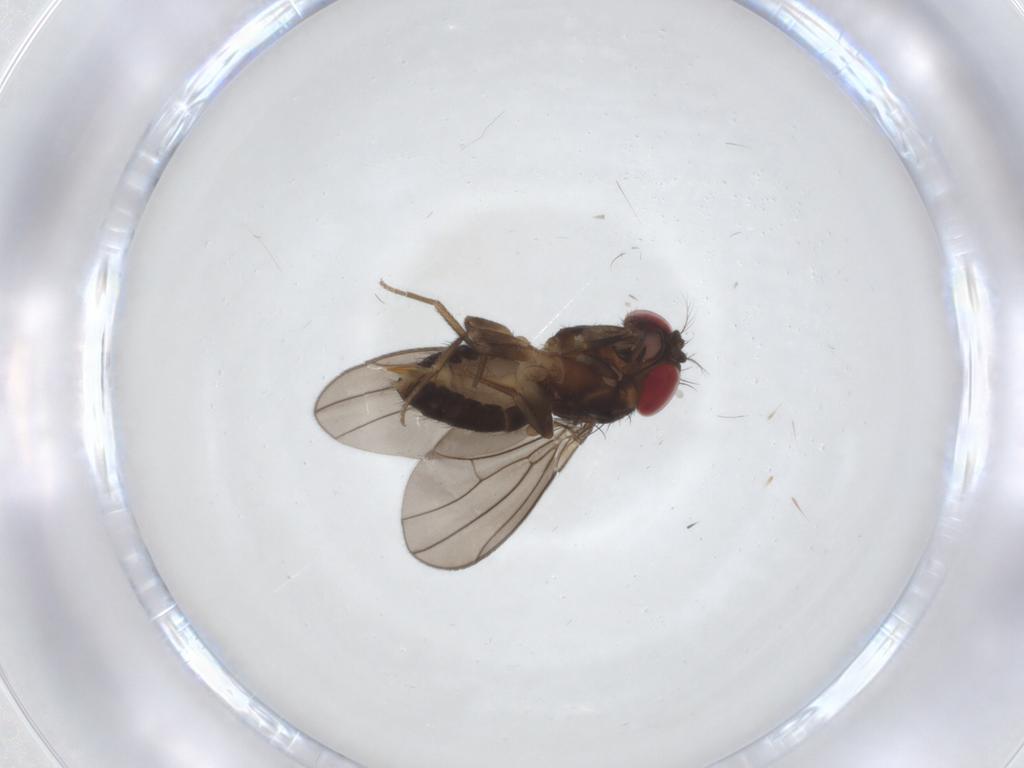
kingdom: Animalia
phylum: Arthropoda
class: Insecta
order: Diptera
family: Drosophilidae
